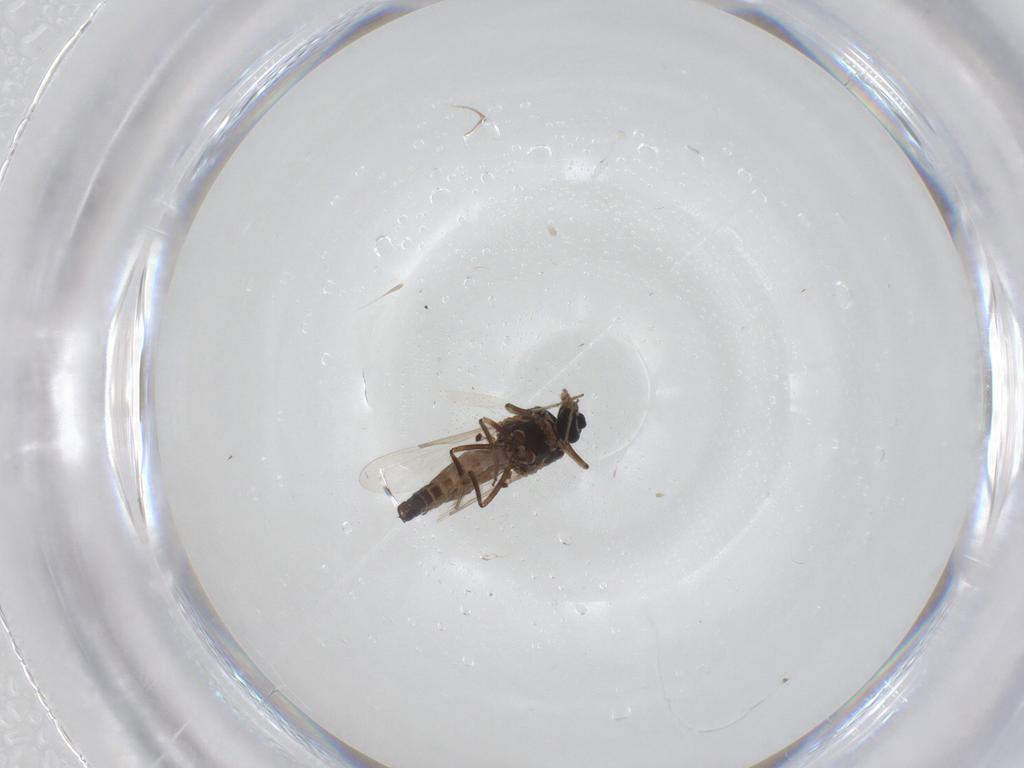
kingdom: Animalia
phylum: Arthropoda
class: Insecta
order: Diptera
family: Ceratopogonidae
